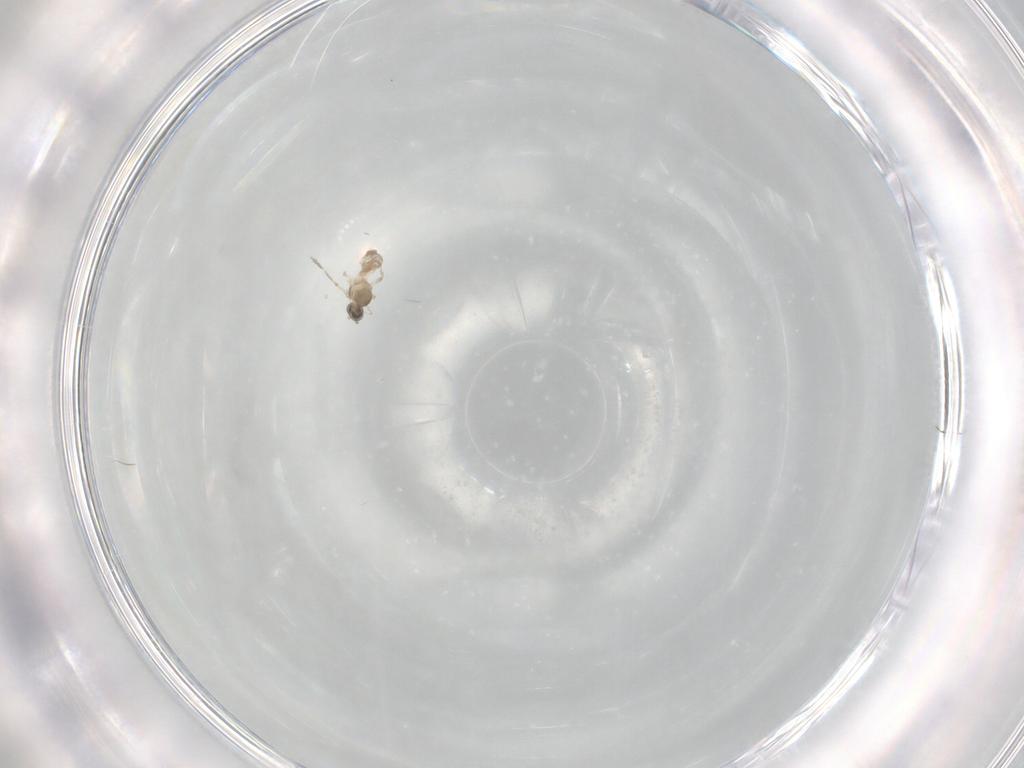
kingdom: Animalia
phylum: Arthropoda
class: Insecta
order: Diptera
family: Cecidomyiidae
